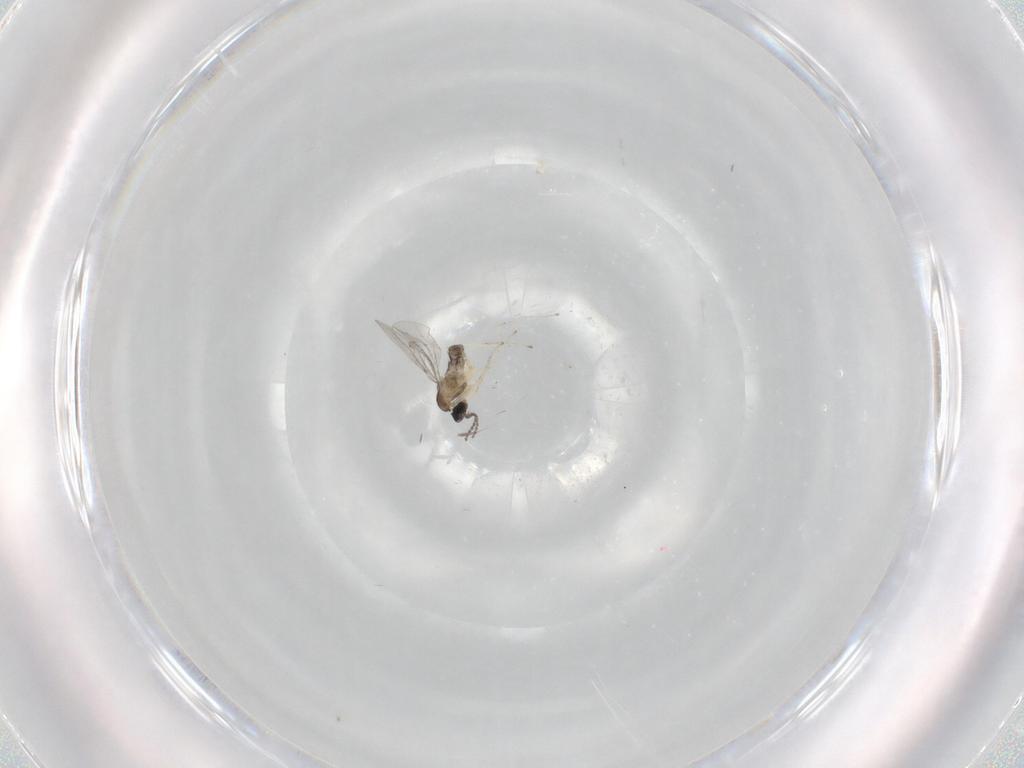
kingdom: Animalia
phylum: Arthropoda
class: Insecta
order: Diptera
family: Cecidomyiidae
